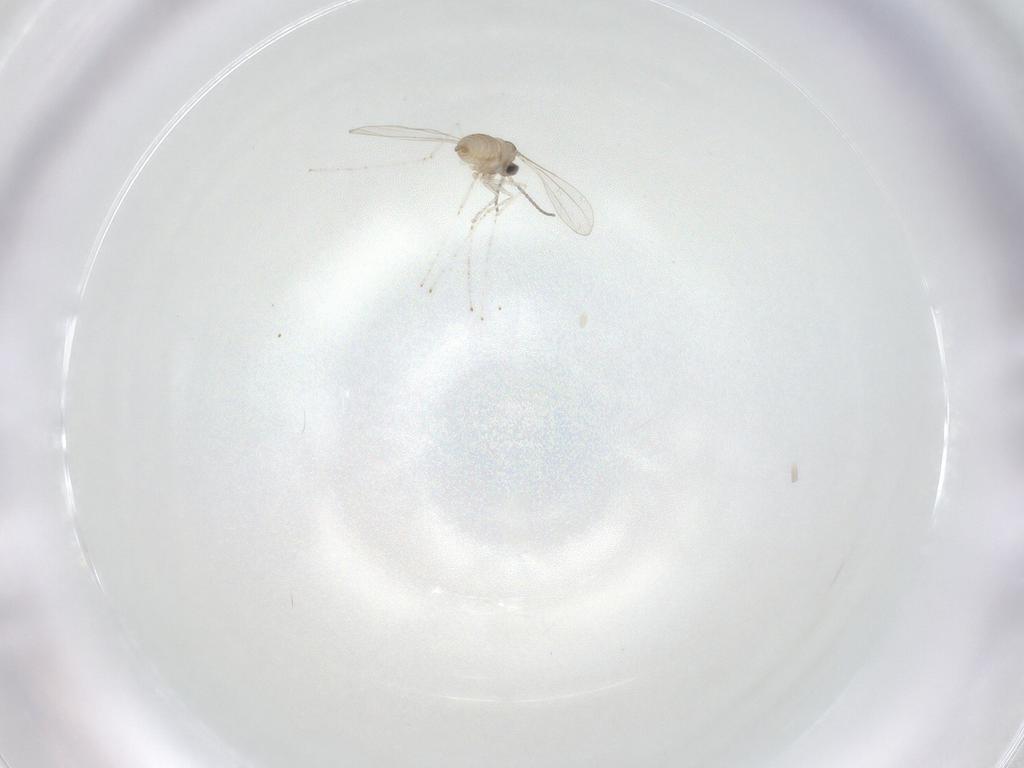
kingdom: Animalia
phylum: Arthropoda
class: Insecta
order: Diptera
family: Psychodidae
